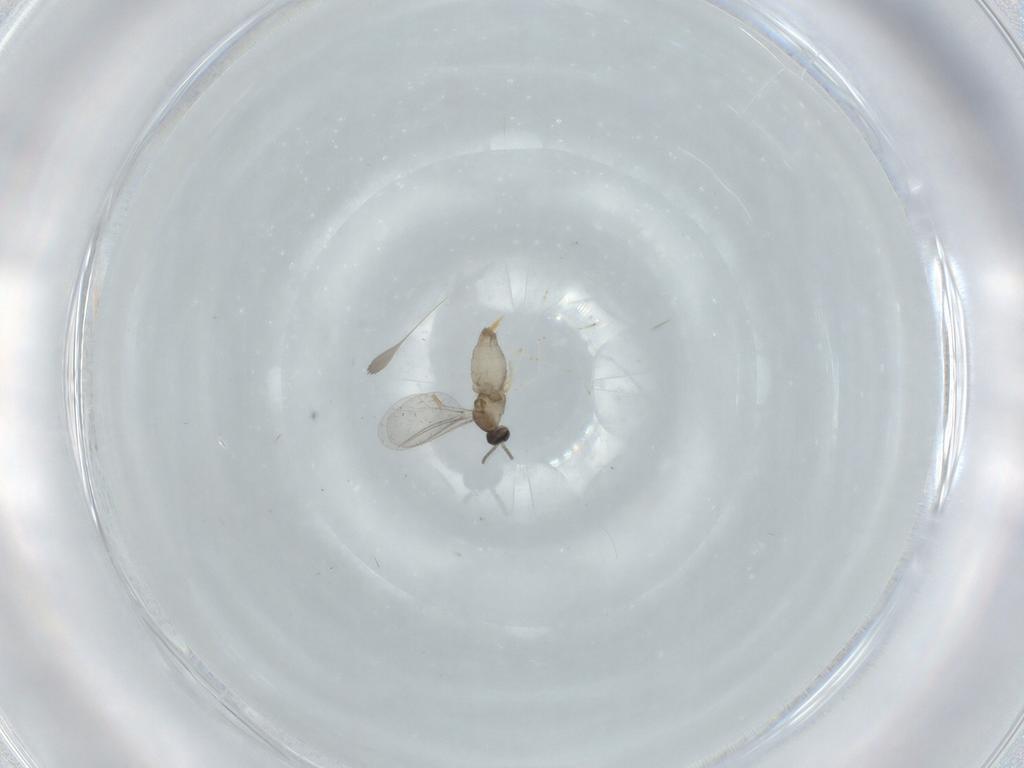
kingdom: Animalia
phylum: Arthropoda
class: Insecta
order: Diptera
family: Cecidomyiidae
